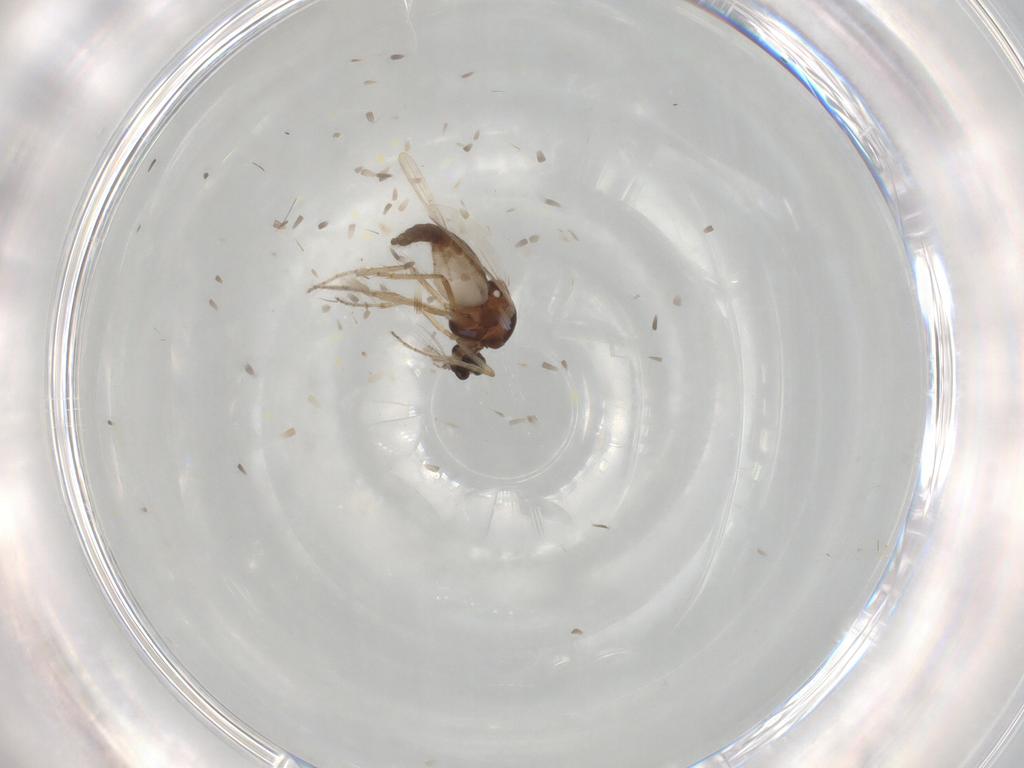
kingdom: Animalia
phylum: Arthropoda
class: Insecta
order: Diptera
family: Ceratopogonidae
